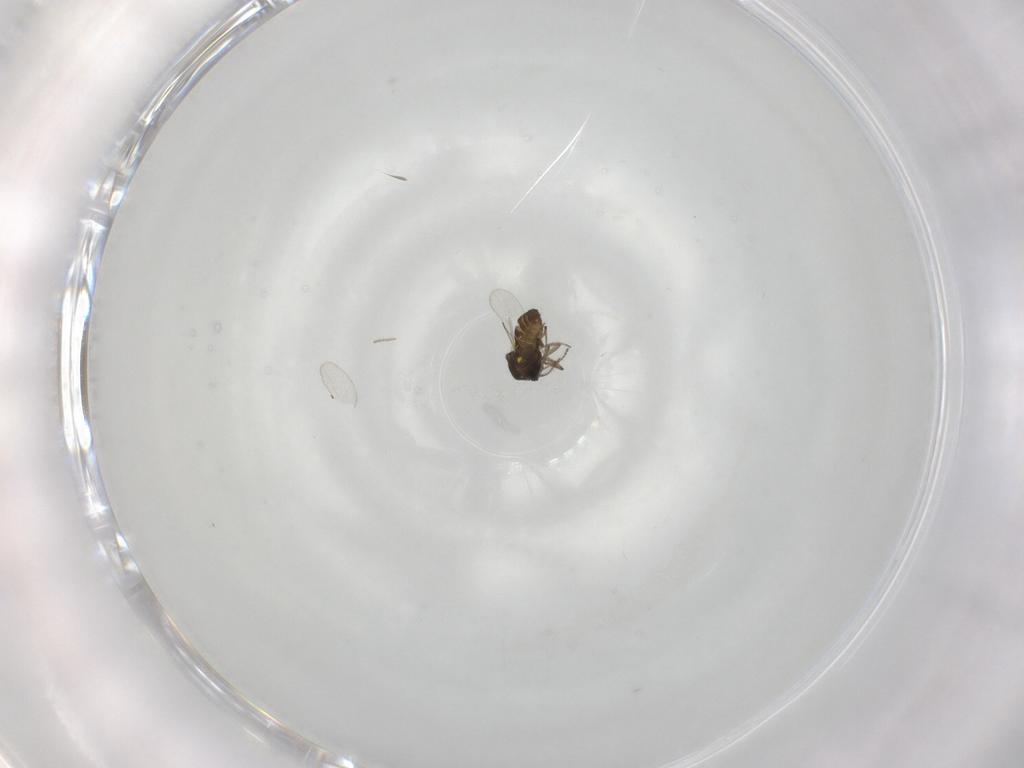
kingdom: Animalia
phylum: Arthropoda
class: Insecta
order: Diptera
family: Ceratopogonidae
